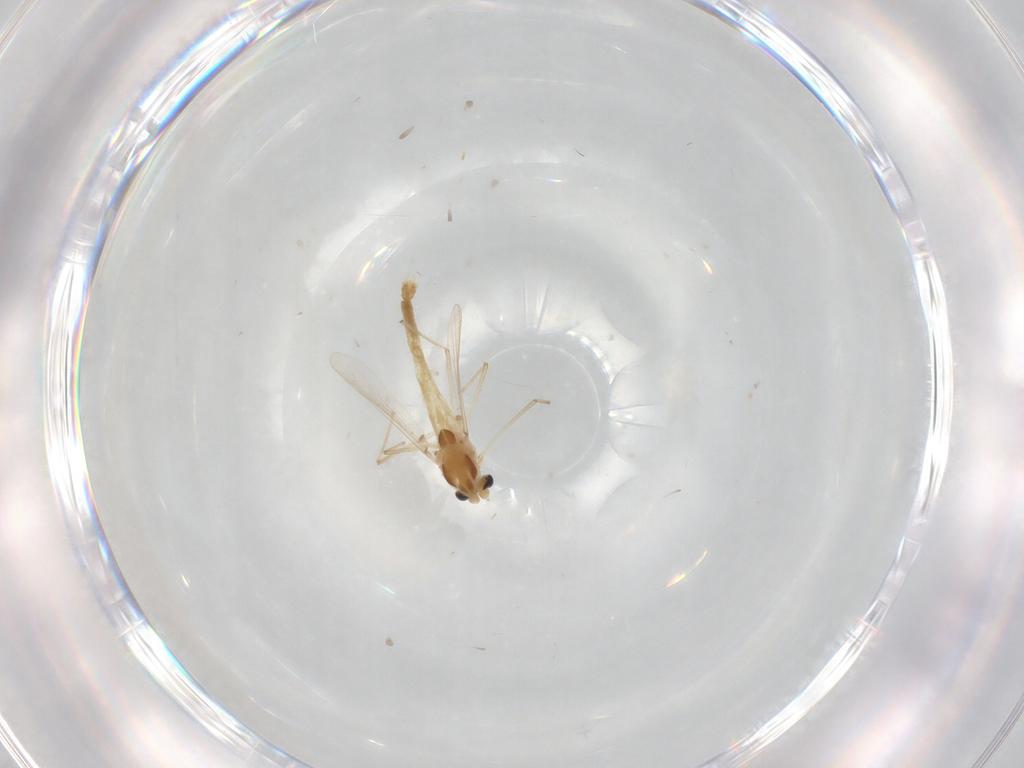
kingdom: Animalia
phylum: Arthropoda
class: Insecta
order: Diptera
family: Chironomidae
